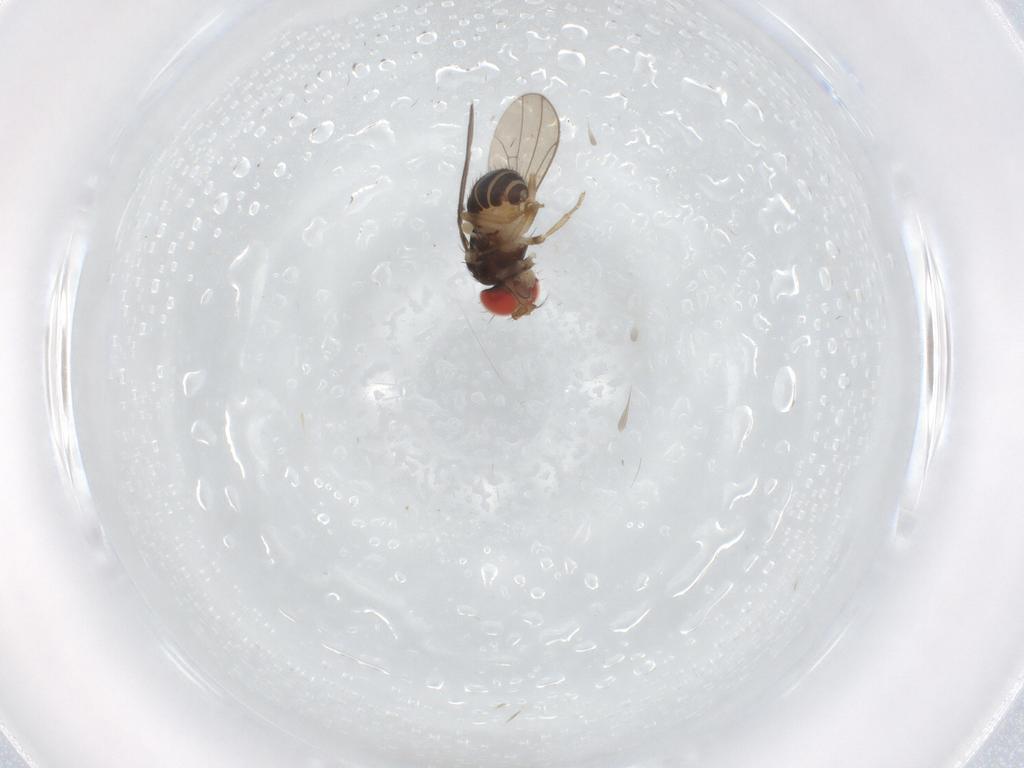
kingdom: Animalia
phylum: Arthropoda
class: Insecta
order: Diptera
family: Drosophilidae
